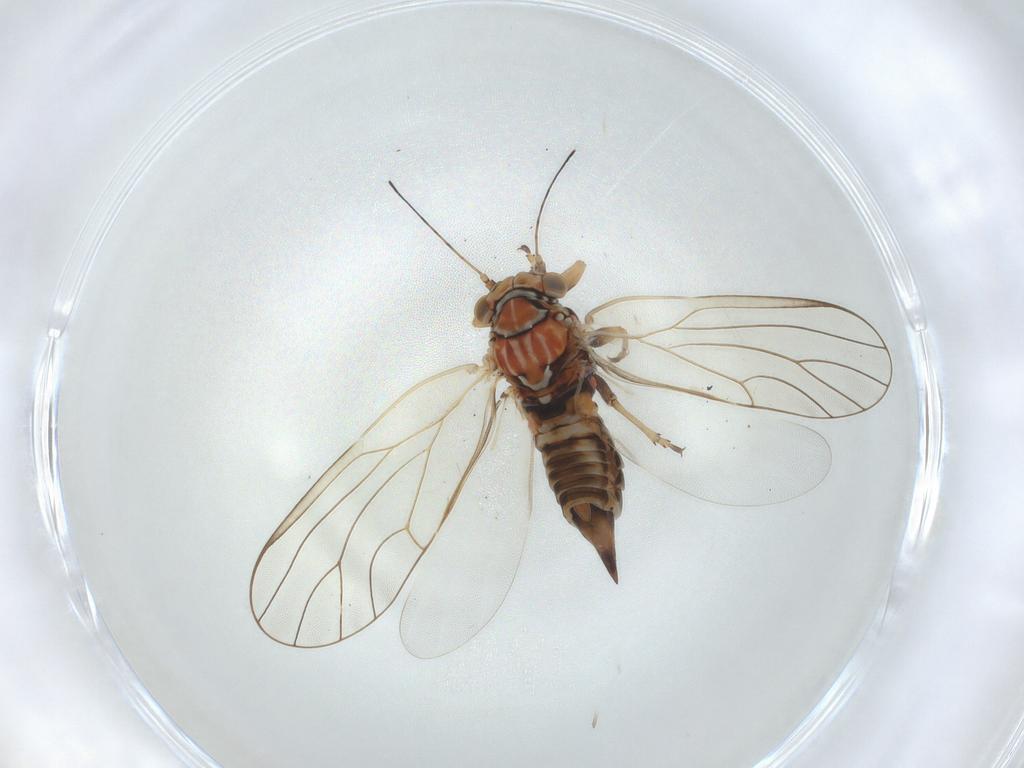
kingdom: Animalia
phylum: Arthropoda
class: Insecta
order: Hemiptera
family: Psyllidae
